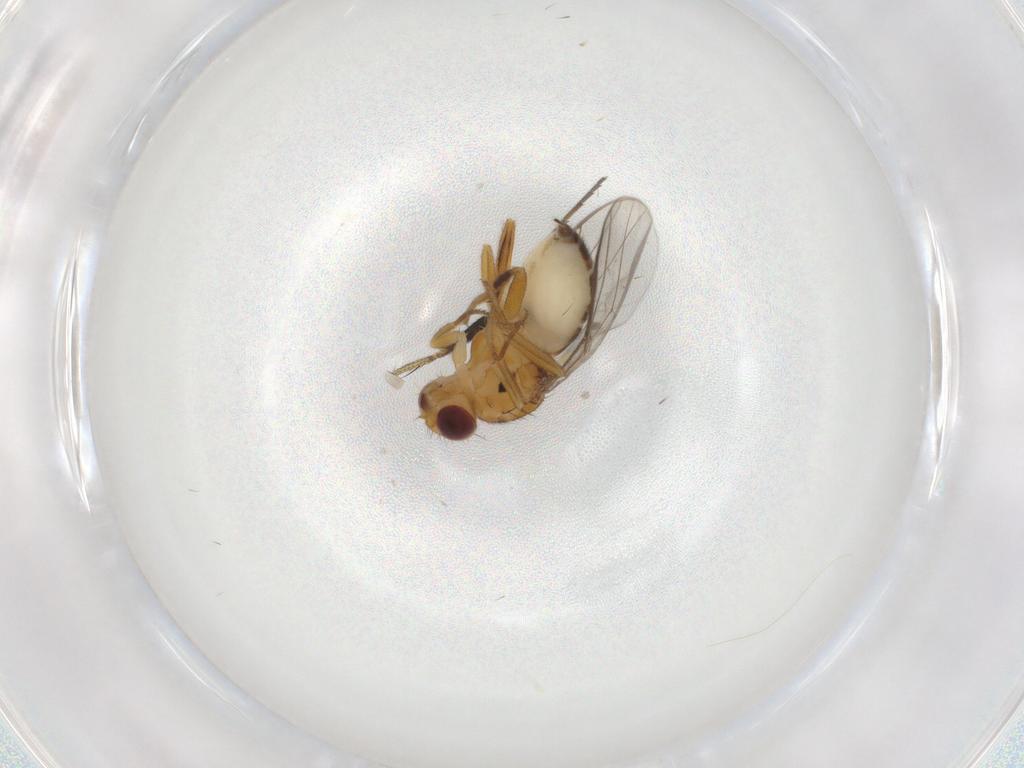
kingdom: Animalia
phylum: Arthropoda
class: Insecta
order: Diptera
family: Chloropidae
